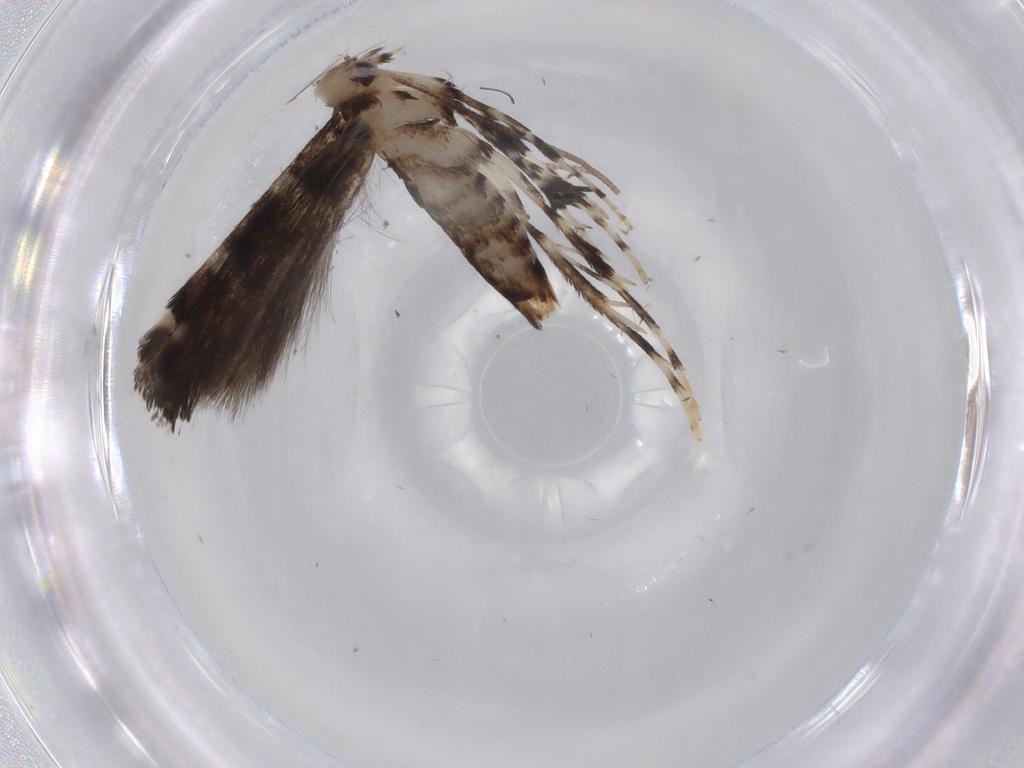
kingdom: Animalia
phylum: Arthropoda
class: Insecta
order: Lepidoptera
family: Gracillariidae
